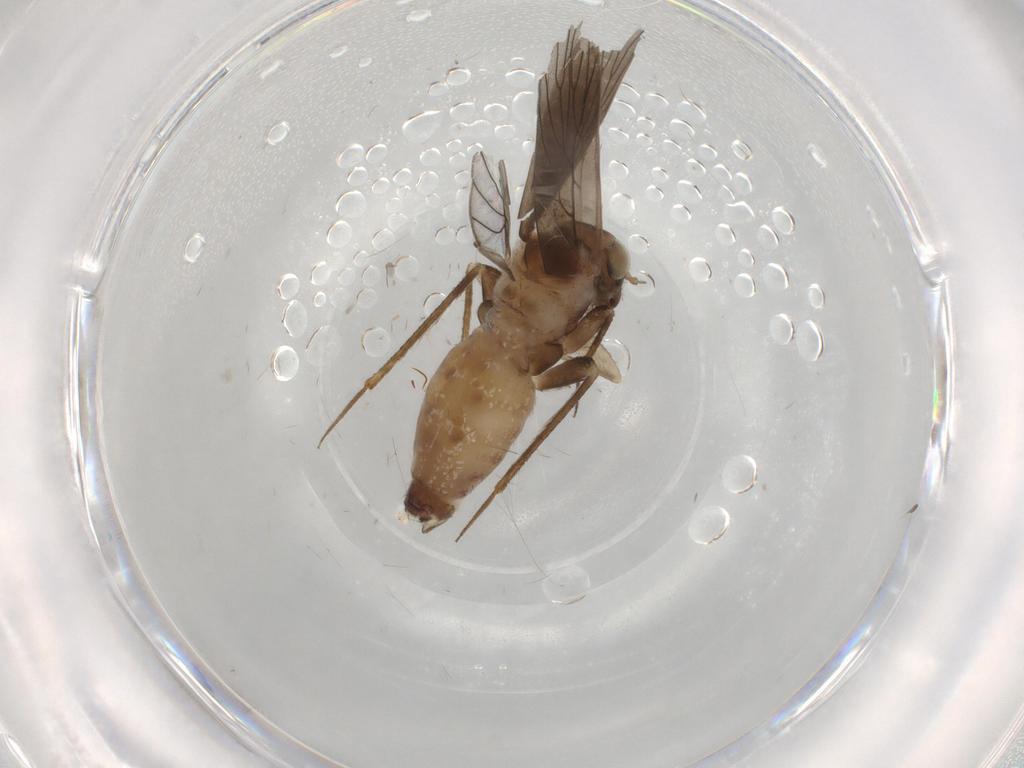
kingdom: Animalia
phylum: Arthropoda
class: Insecta
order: Psocodea
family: Lepidopsocidae
